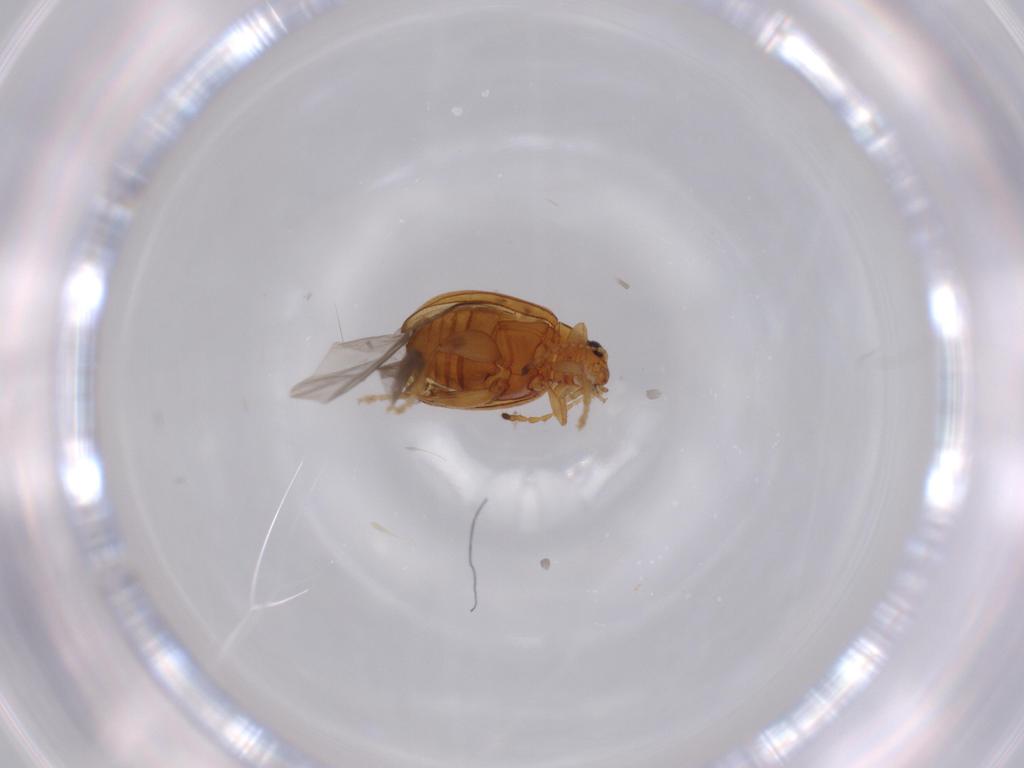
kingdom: Animalia
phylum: Arthropoda
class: Insecta
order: Coleoptera
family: Chrysomelidae
